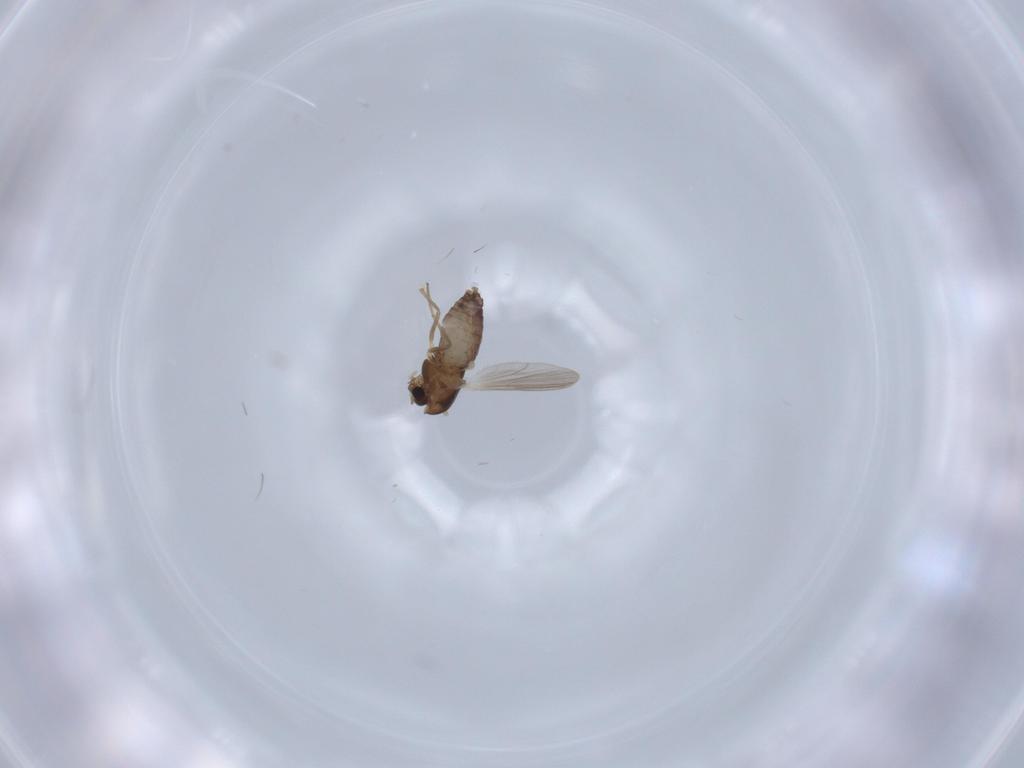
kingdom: Animalia
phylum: Arthropoda
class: Insecta
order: Diptera
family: Chironomidae
